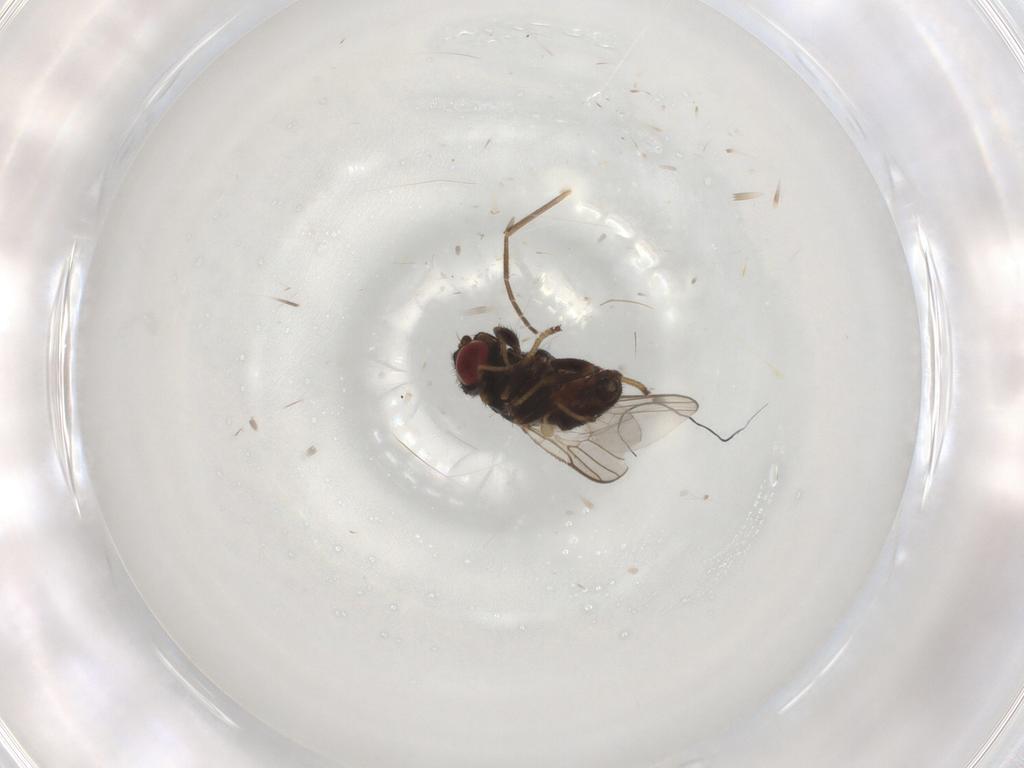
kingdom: Animalia
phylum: Arthropoda
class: Insecta
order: Diptera
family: Chloropidae
